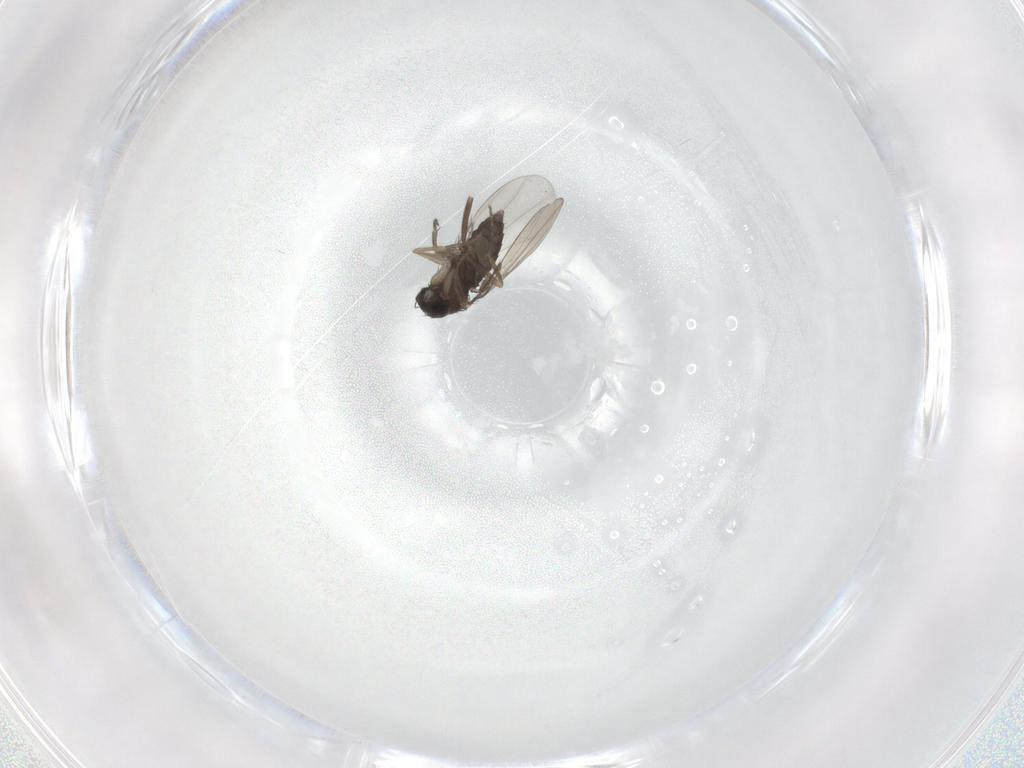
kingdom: Animalia
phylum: Arthropoda
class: Insecta
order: Diptera
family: Phoridae
